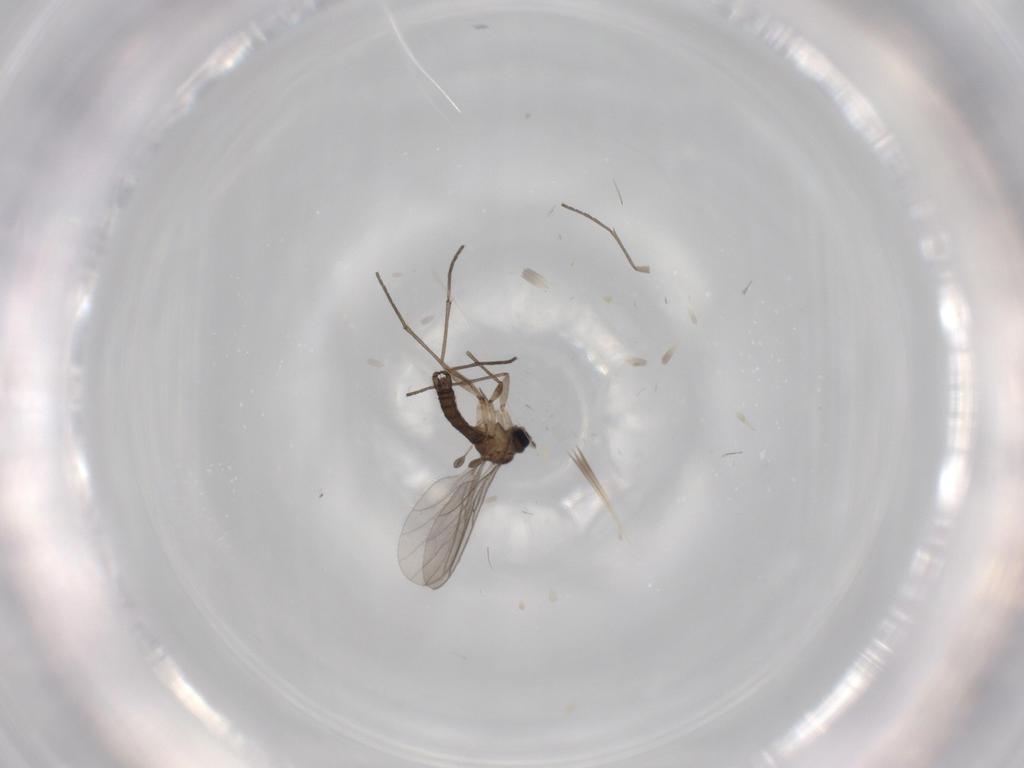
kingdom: Animalia
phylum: Arthropoda
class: Insecta
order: Diptera
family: Sciaridae
